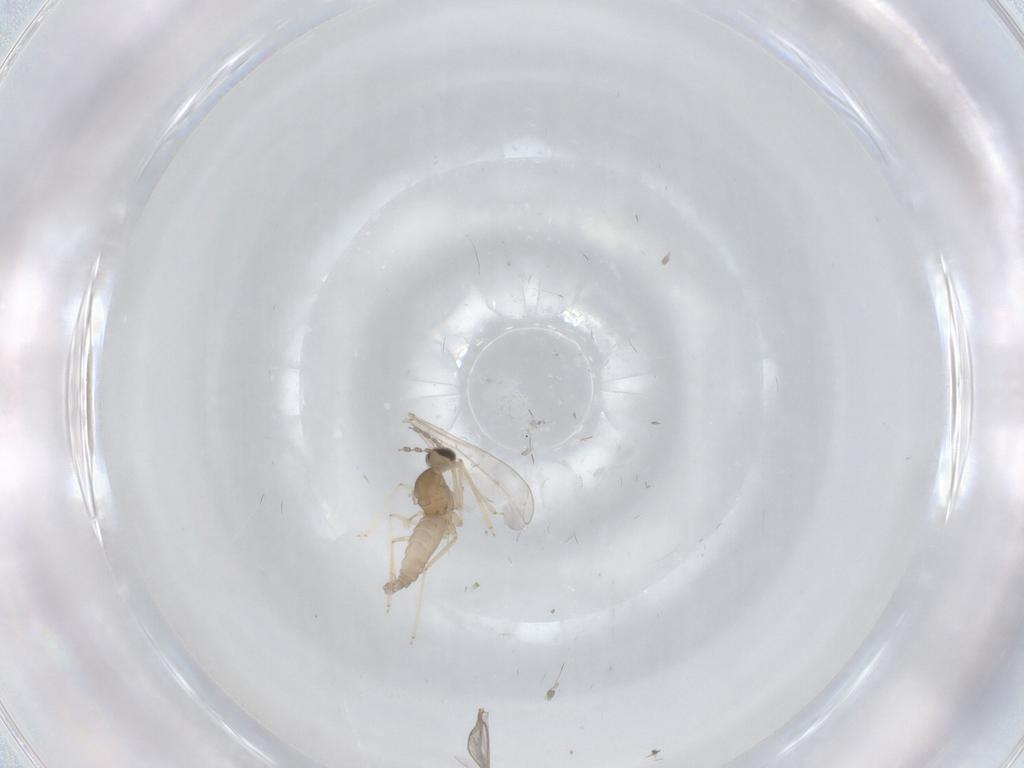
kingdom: Animalia
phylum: Arthropoda
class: Insecta
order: Diptera
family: Cecidomyiidae
